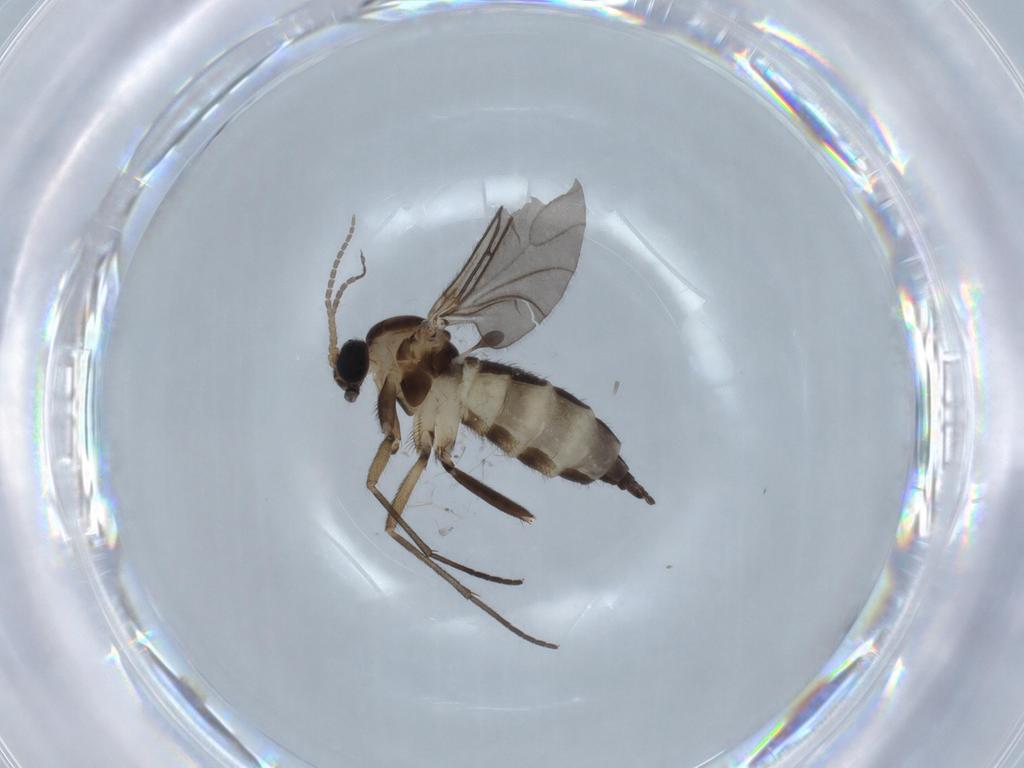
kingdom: Animalia
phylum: Arthropoda
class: Insecta
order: Diptera
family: Sciaridae
